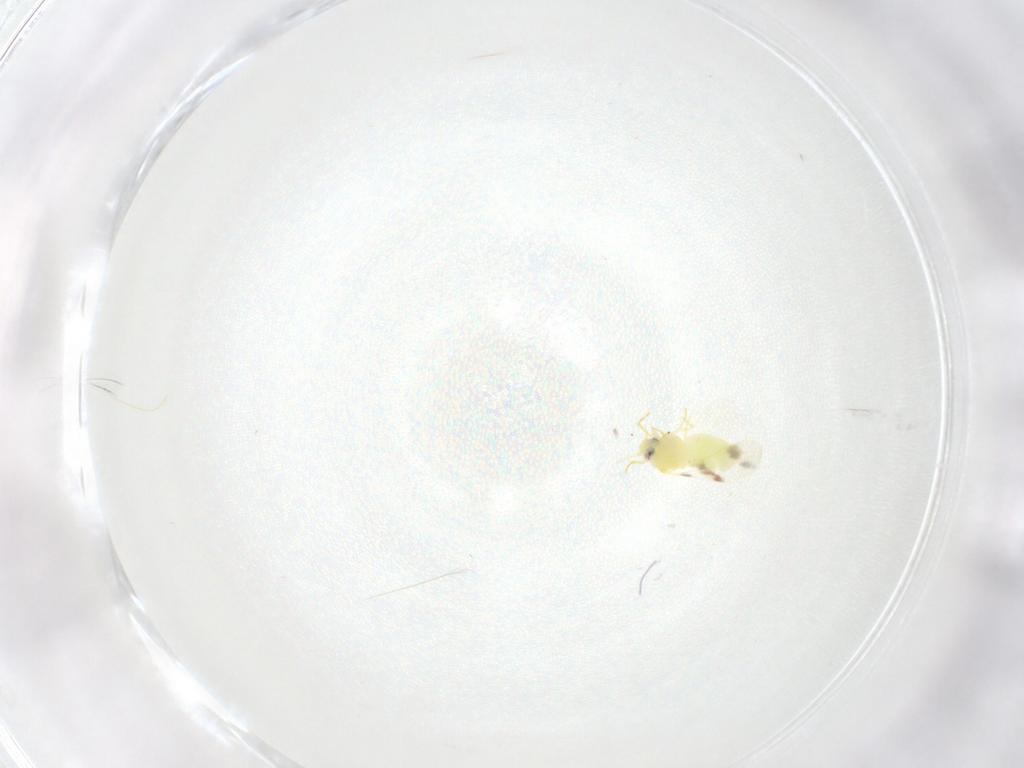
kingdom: Animalia
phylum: Arthropoda
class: Insecta
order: Hemiptera
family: Aleyrodidae
